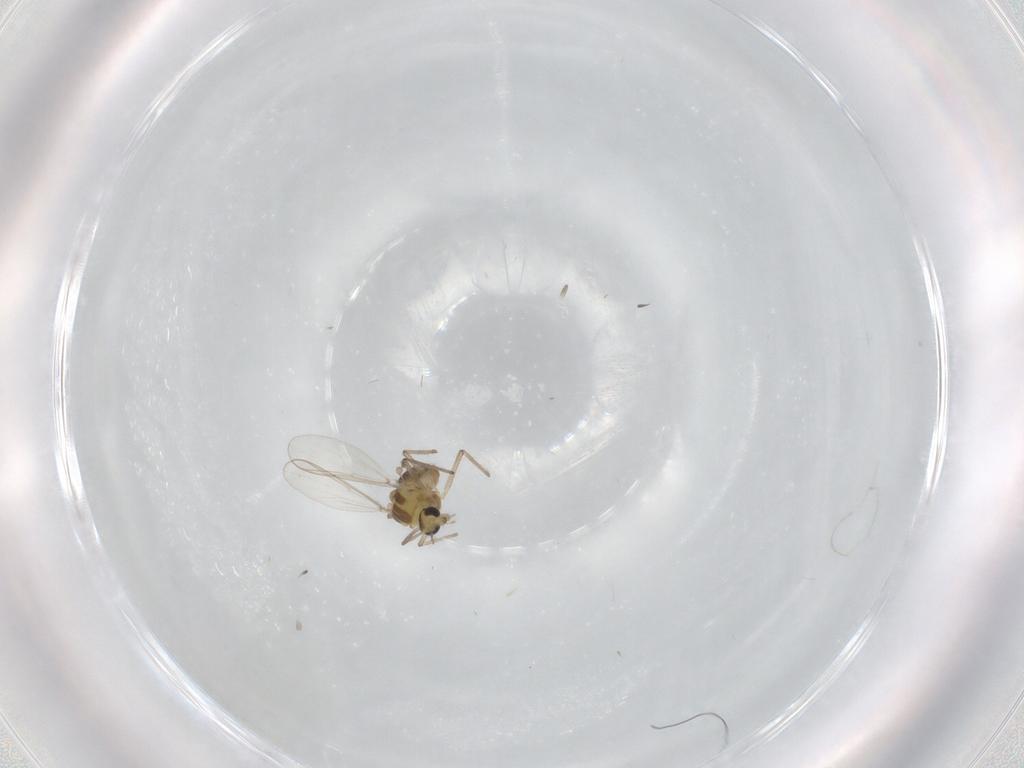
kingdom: Animalia
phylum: Arthropoda
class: Insecta
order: Diptera
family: Chironomidae
